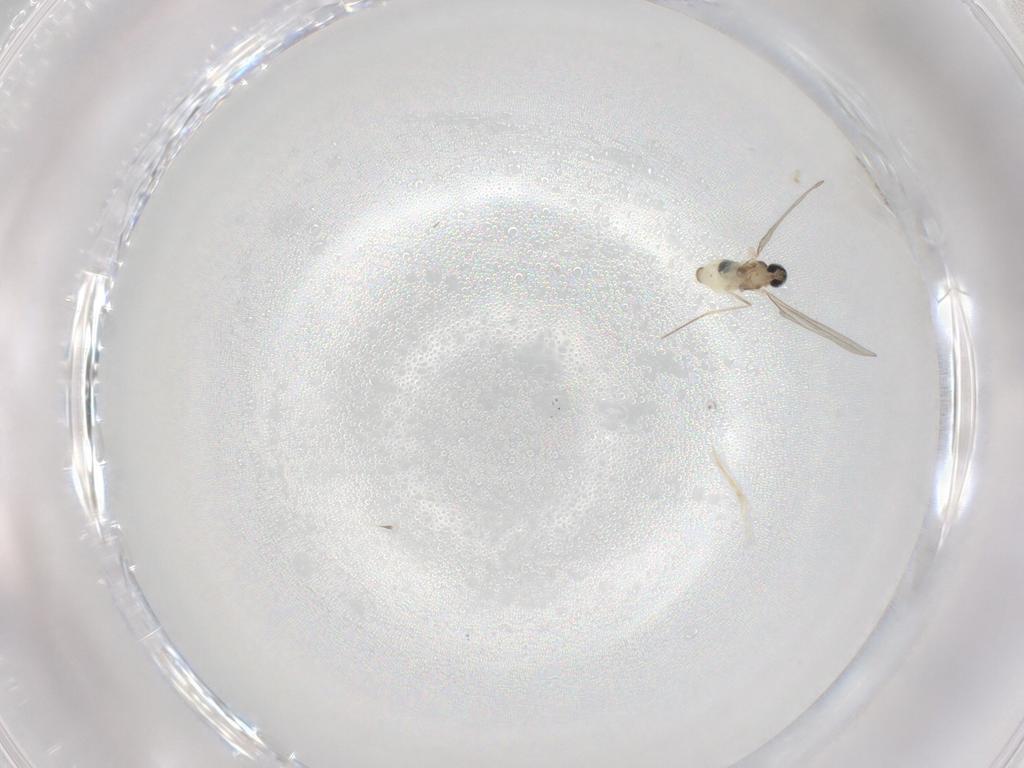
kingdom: Animalia
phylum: Arthropoda
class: Insecta
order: Diptera
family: Cecidomyiidae
